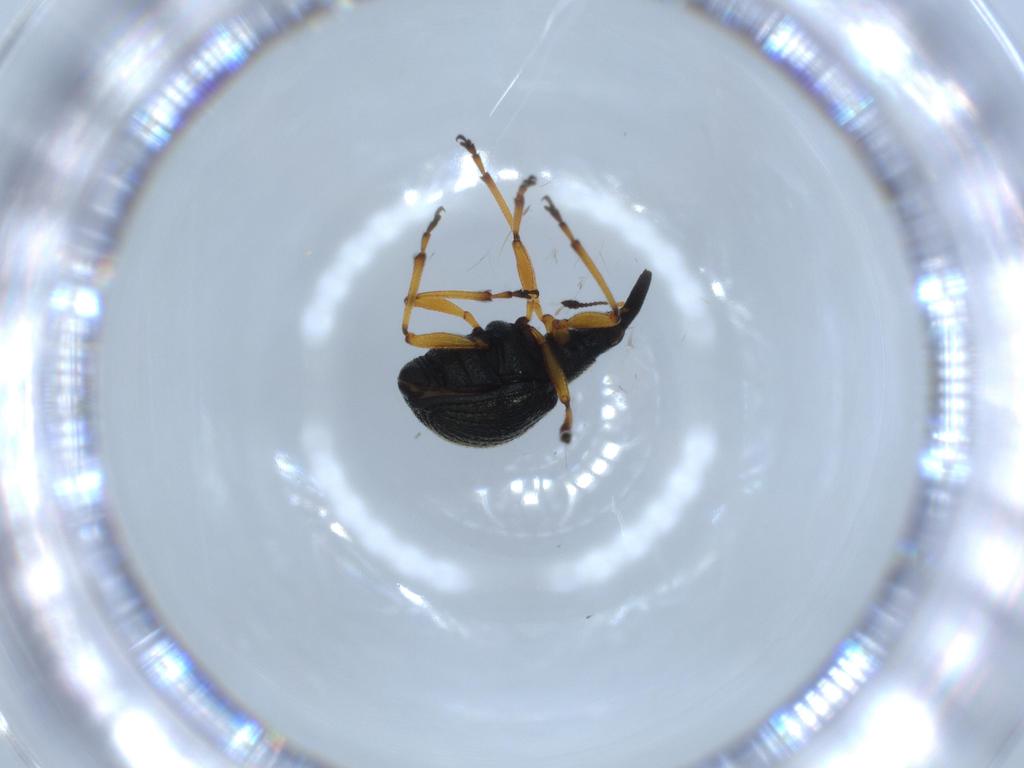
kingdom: Animalia
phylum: Arthropoda
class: Insecta
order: Coleoptera
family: Brentidae
